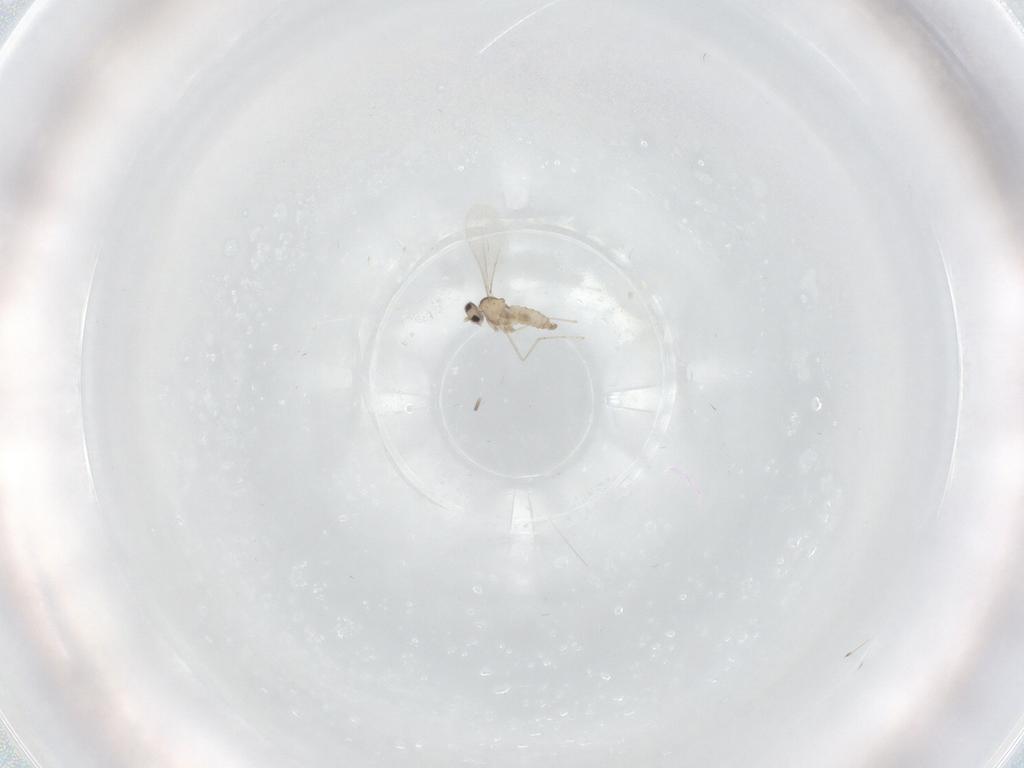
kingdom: Animalia
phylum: Arthropoda
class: Insecta
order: Diptera
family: Cecidomyiidae
